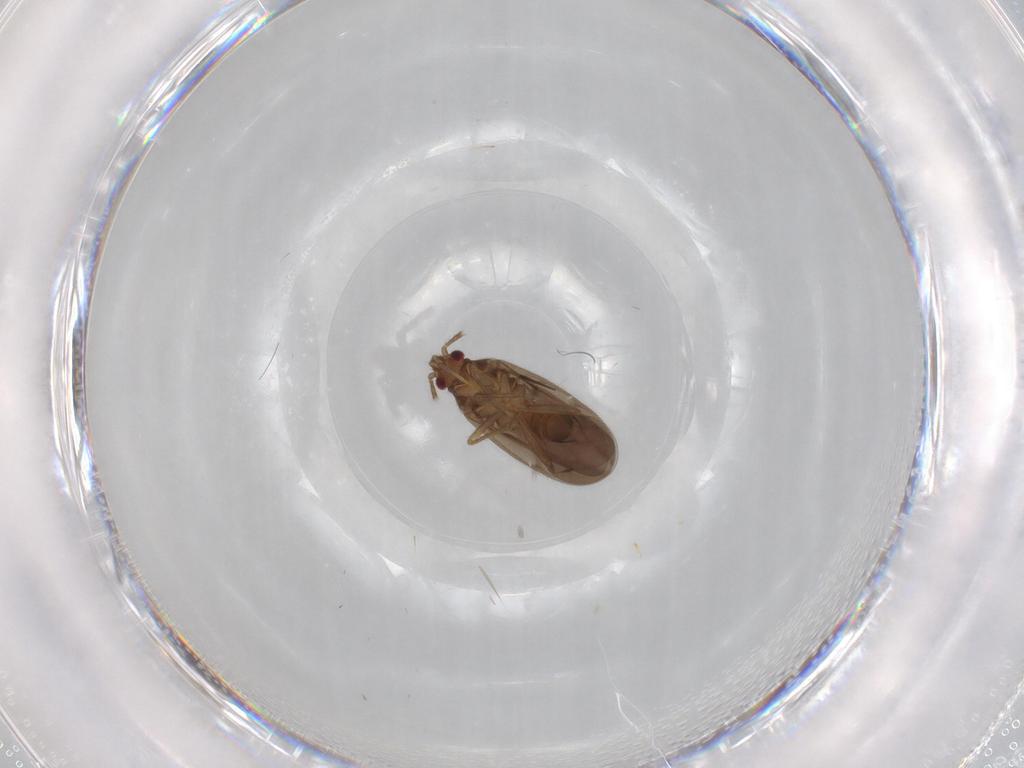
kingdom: Animalia
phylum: Arthropoda
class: Insecta
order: Hemiptera
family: Ceratocombidae
